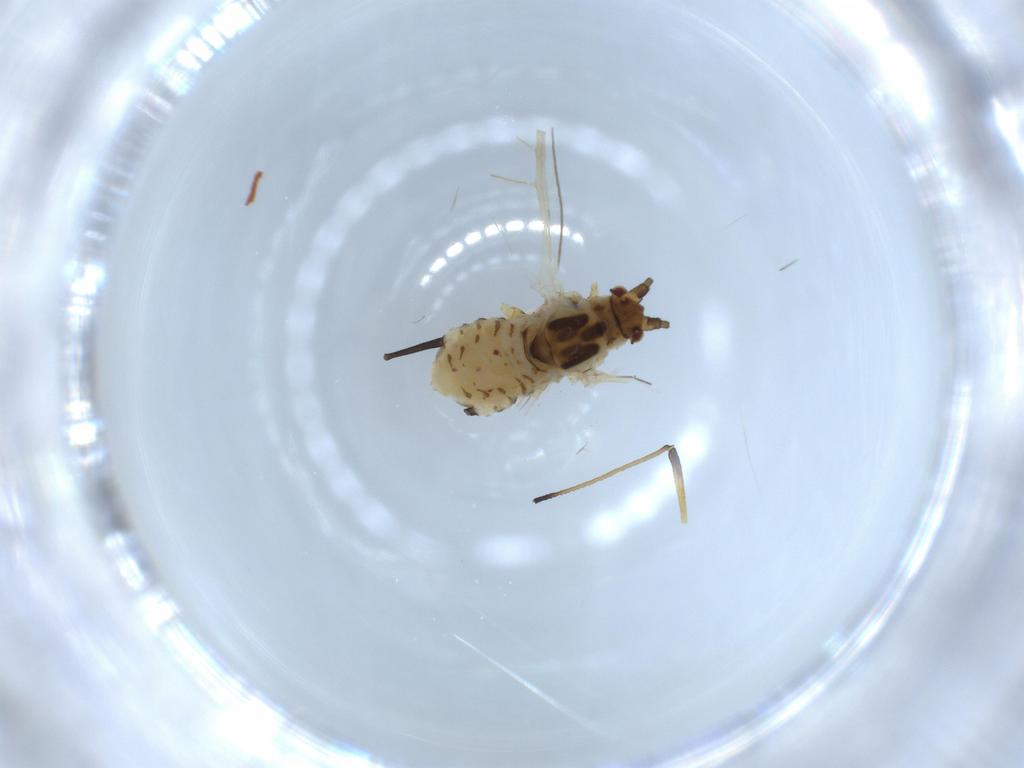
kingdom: Animalia
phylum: Arthropoda
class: Insecta
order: Hemiptera
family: Aphididae
